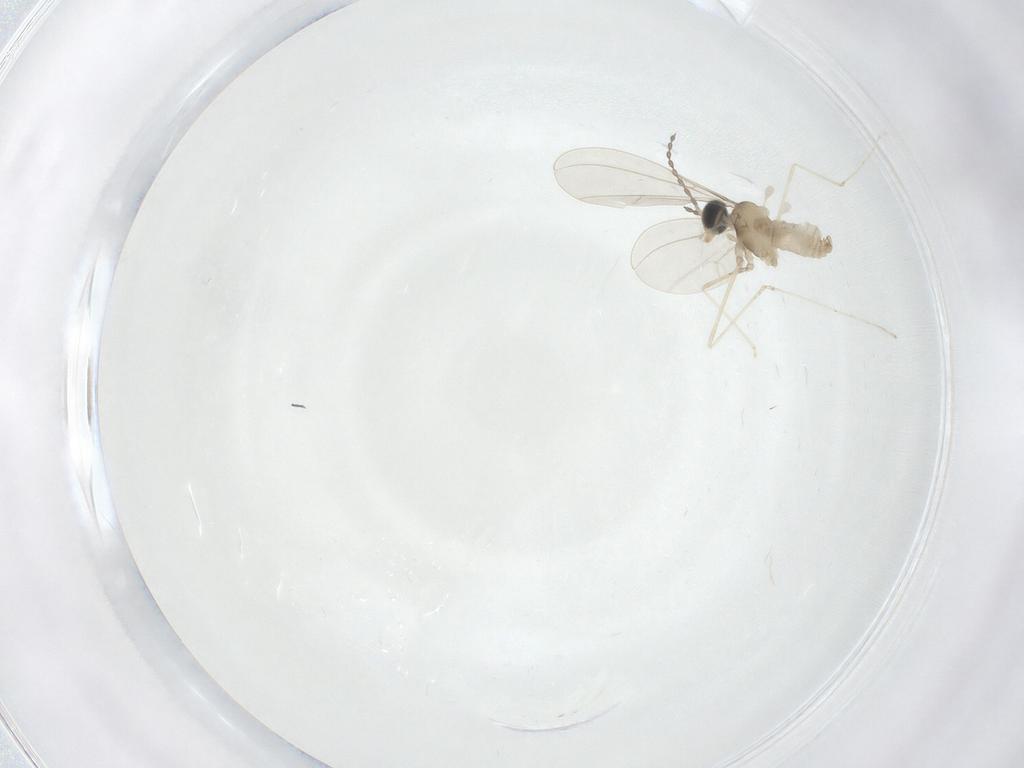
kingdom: Animalia
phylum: Arthropoda
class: Insecta
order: Diptera
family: Cecidomyiidae
